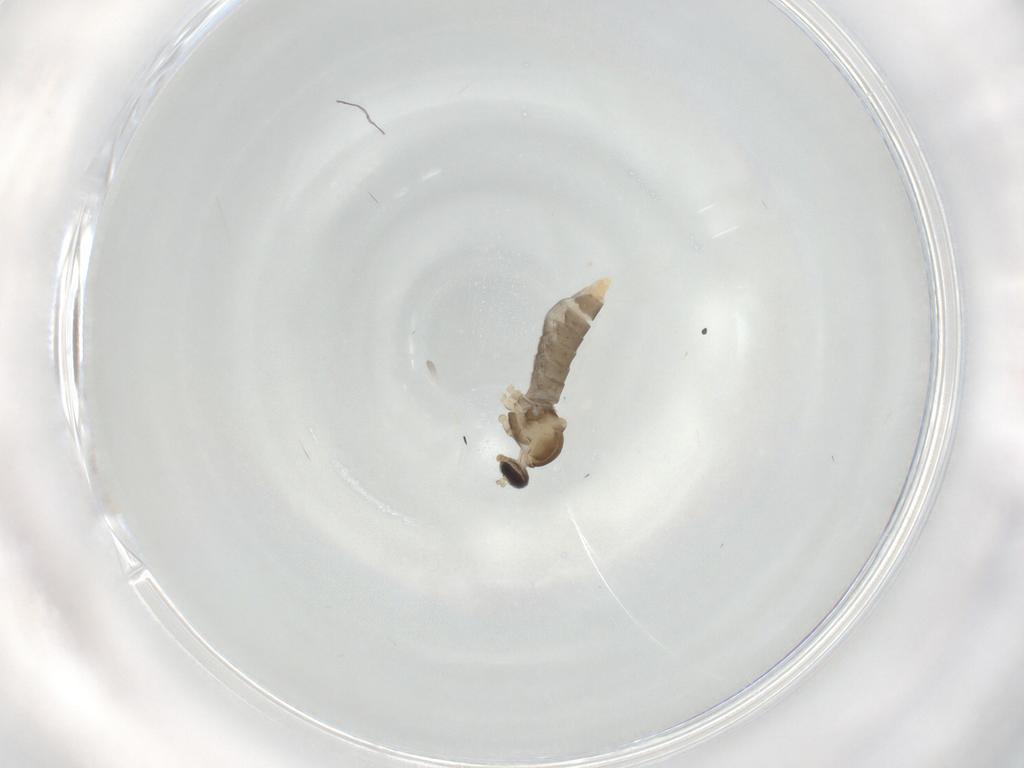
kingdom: Animalia
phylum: Arthropoda
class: Insecta
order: Diptera
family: Cecidomyiidae
